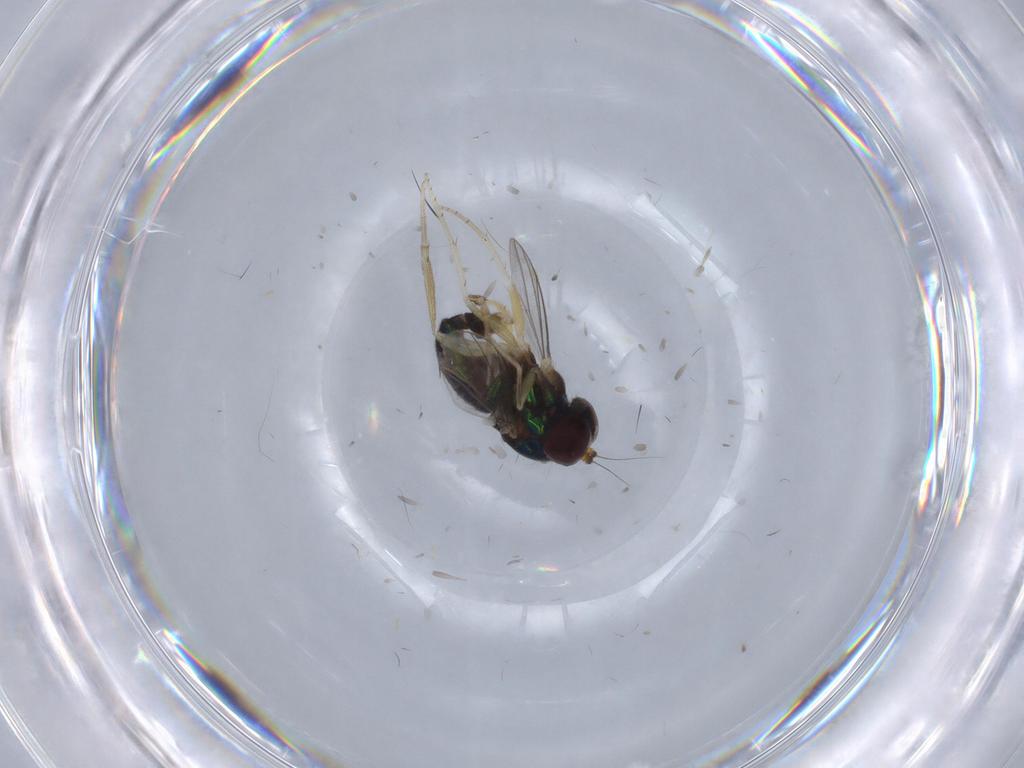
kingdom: Animalia
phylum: Arthropoda
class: Insecta
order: Diptera
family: Dolichopodidae
